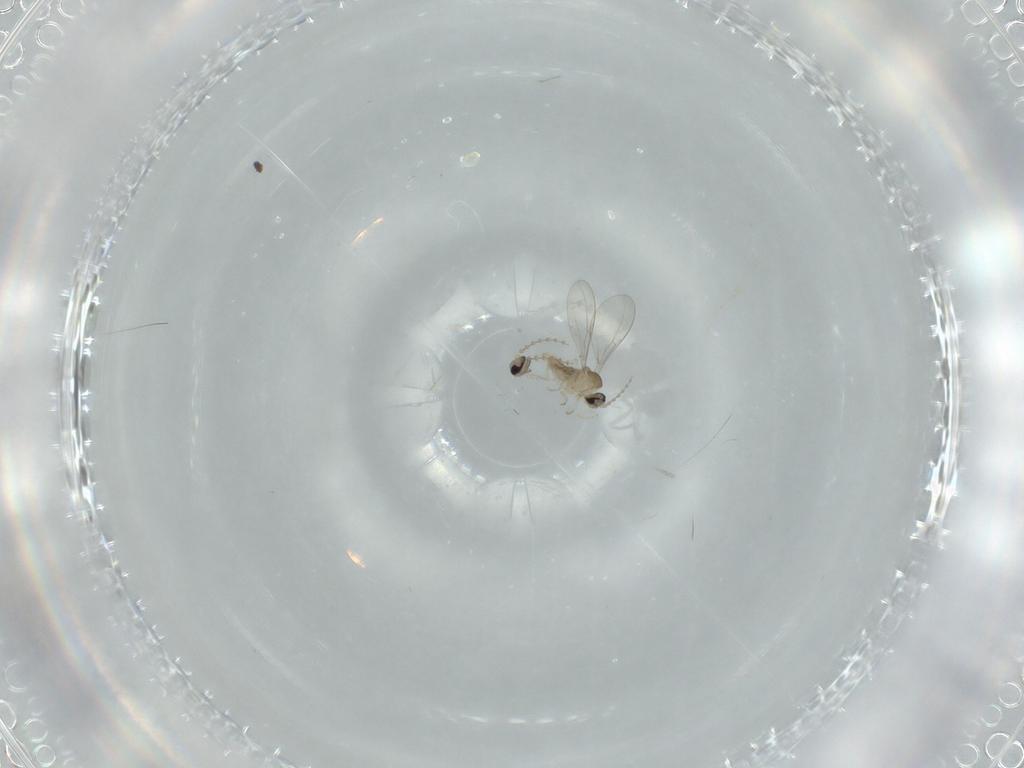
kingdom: Animalia
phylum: Arthropoda
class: Insecta
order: Diptera
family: Cecidomyiidae
